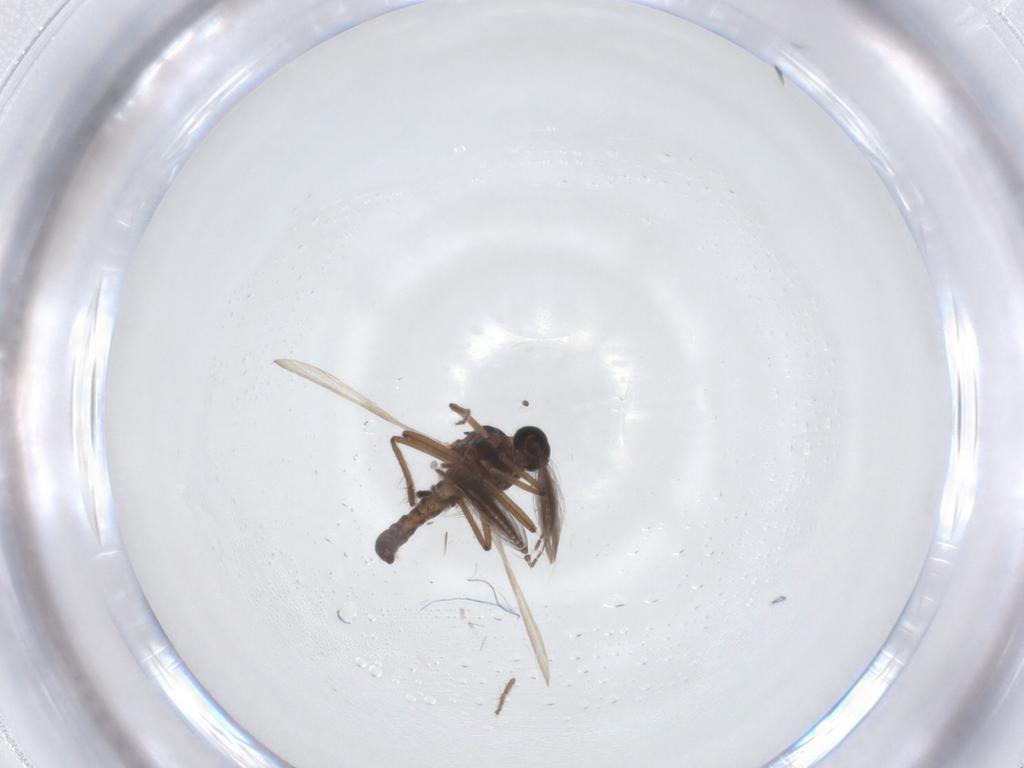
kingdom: Animalia
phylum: Arthropoda
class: Insecta
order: Diptera
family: Ceratopogonidae
